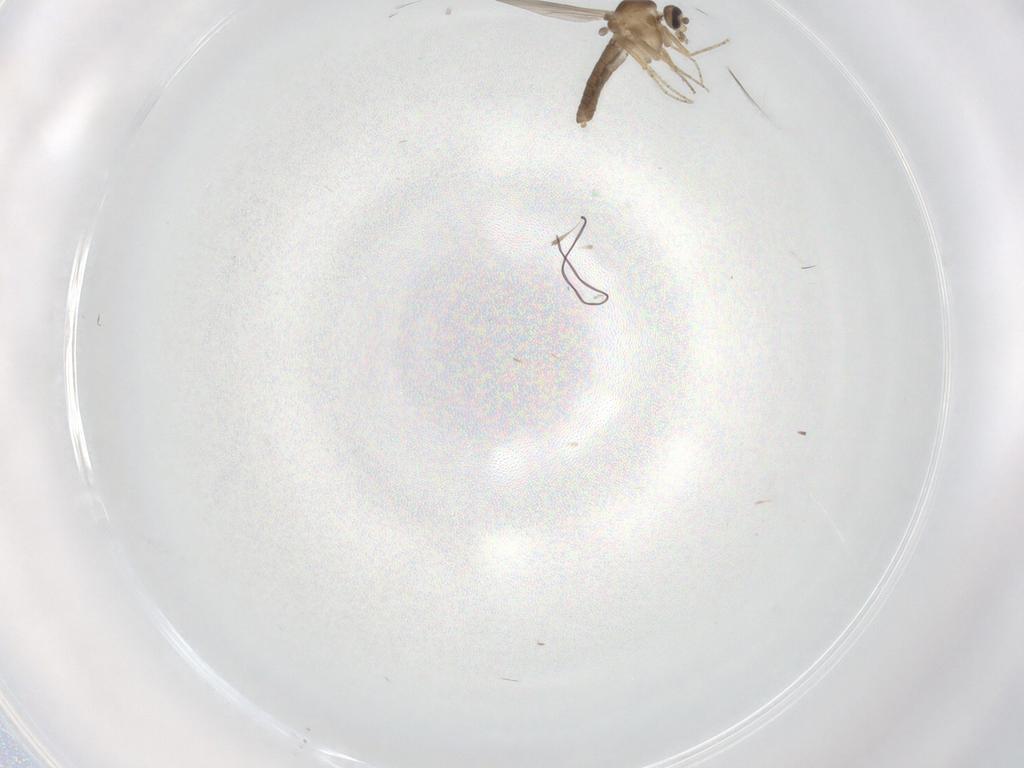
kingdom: Animalia
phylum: Arthropoda
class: Insecta
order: Diptera
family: Ceratopogonidae
